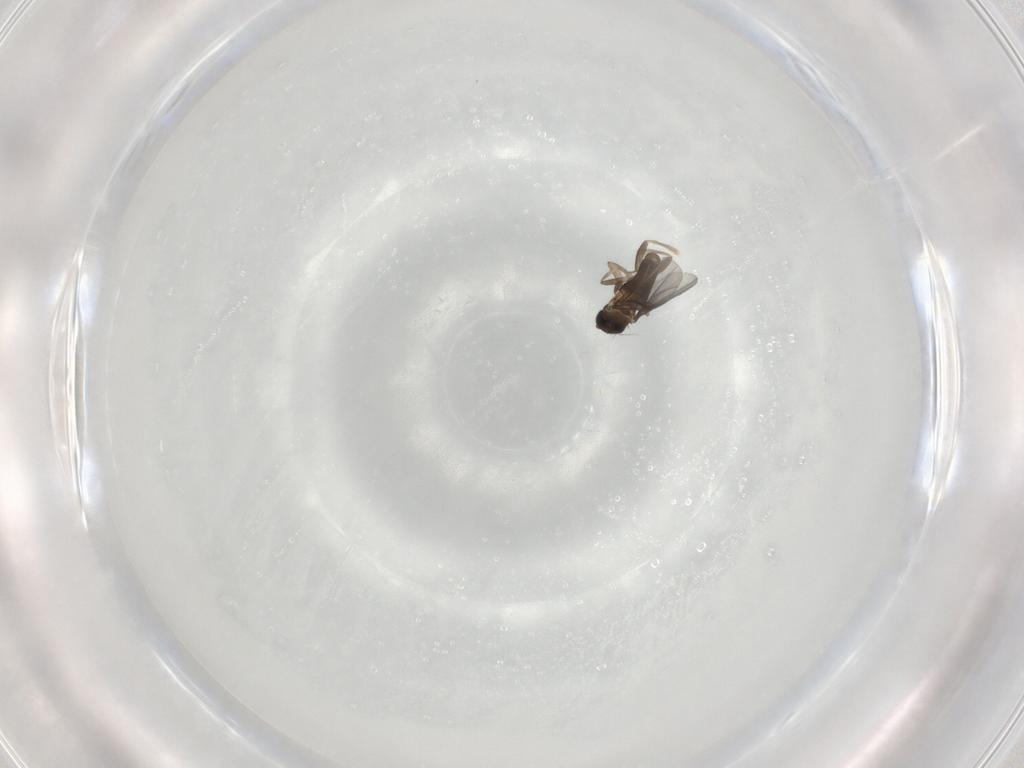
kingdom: Animalia
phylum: Arthropoda
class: Insecta
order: Diptera
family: Phoridae
